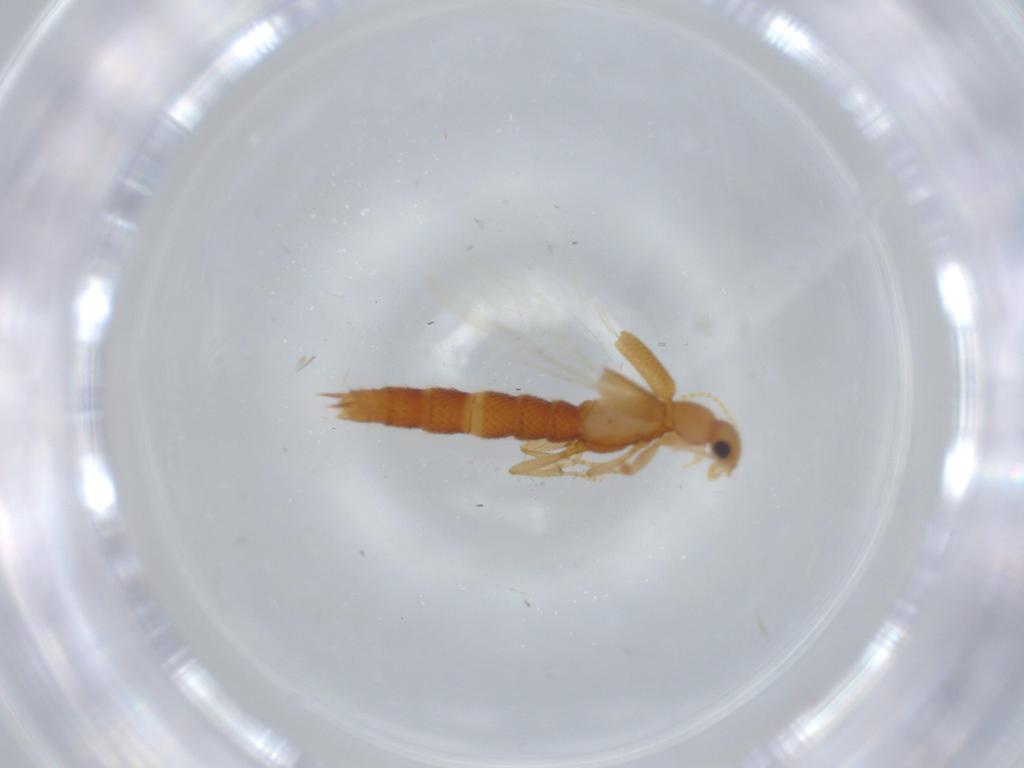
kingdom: Animalia
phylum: Arthropoda
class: Insecta
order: Coleoptera
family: Staphylinidae
